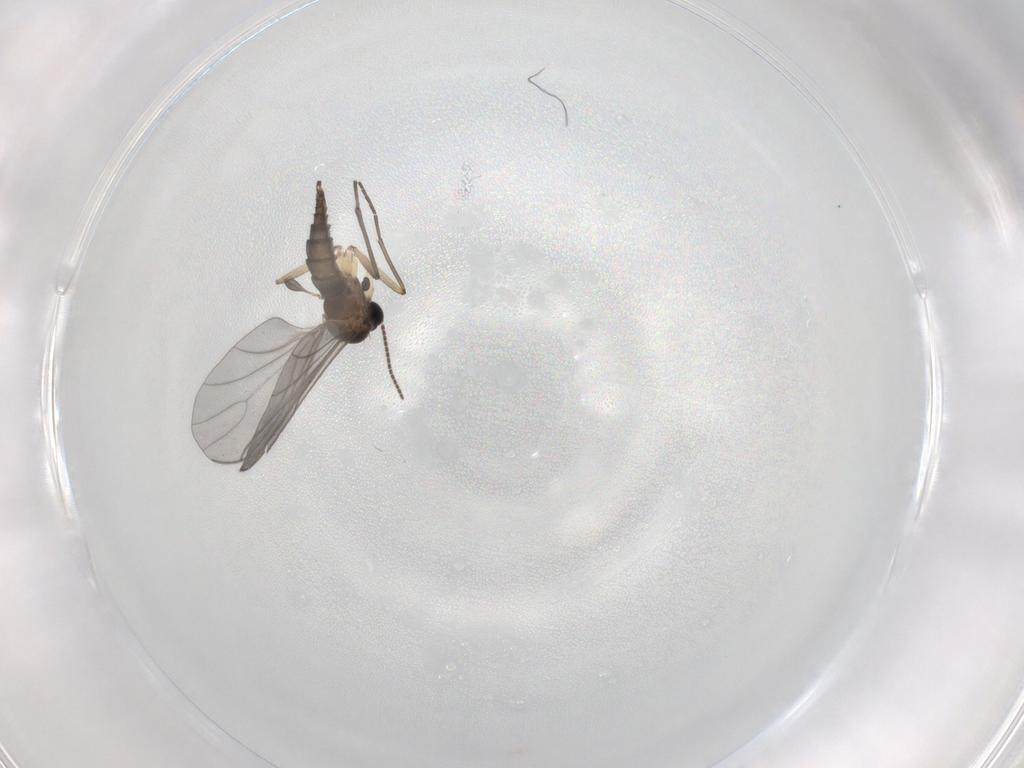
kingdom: Animalia
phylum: Arthropoda
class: Insecta
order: Diptera
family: Sciaridae
